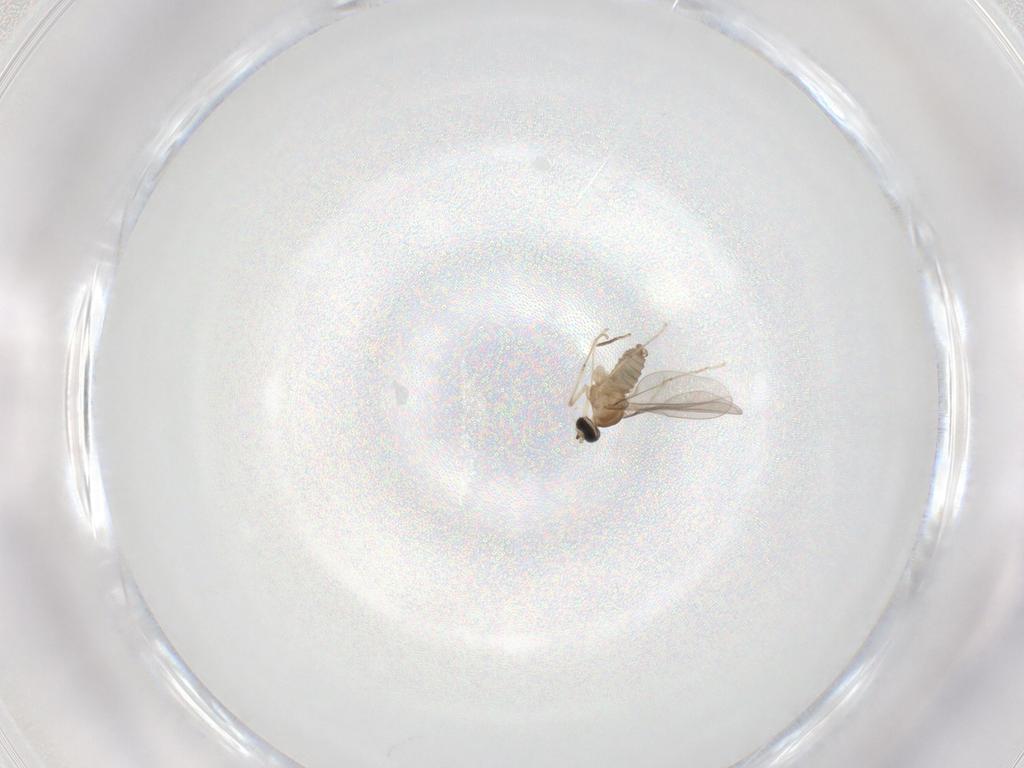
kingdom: Animalia
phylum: Arthropoda
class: Insecta
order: Diptera
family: Cecidomyiidae
